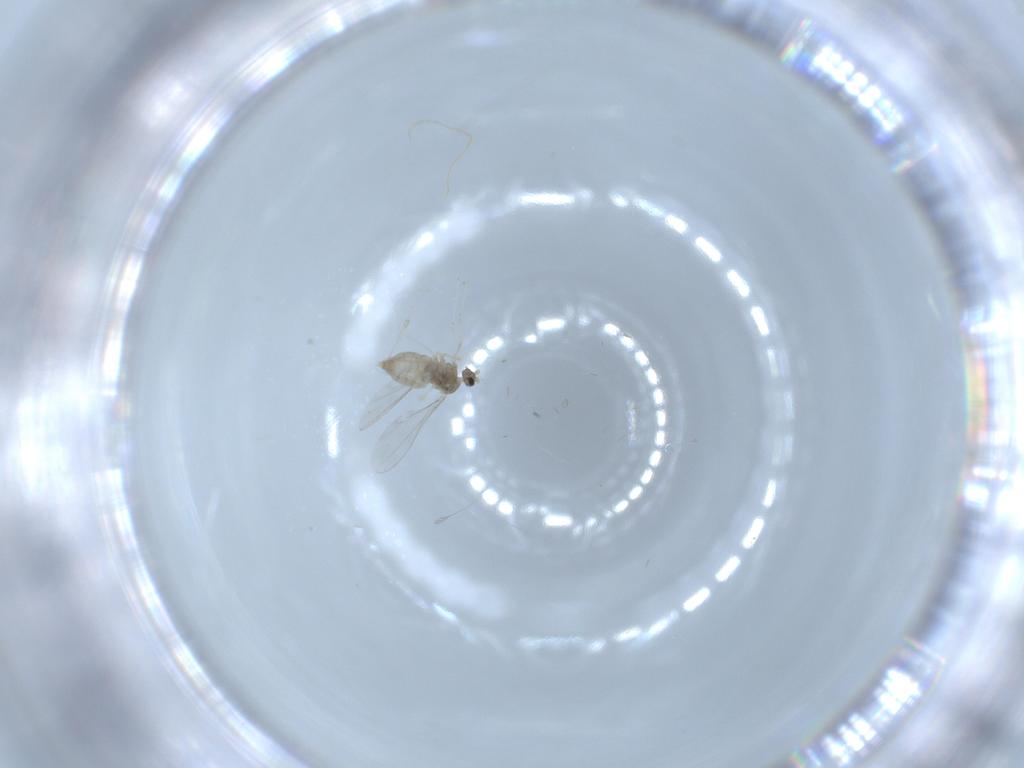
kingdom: Animalia
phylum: Arthropoda
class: Insecta
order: Diptera
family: Cecidomyiidae
